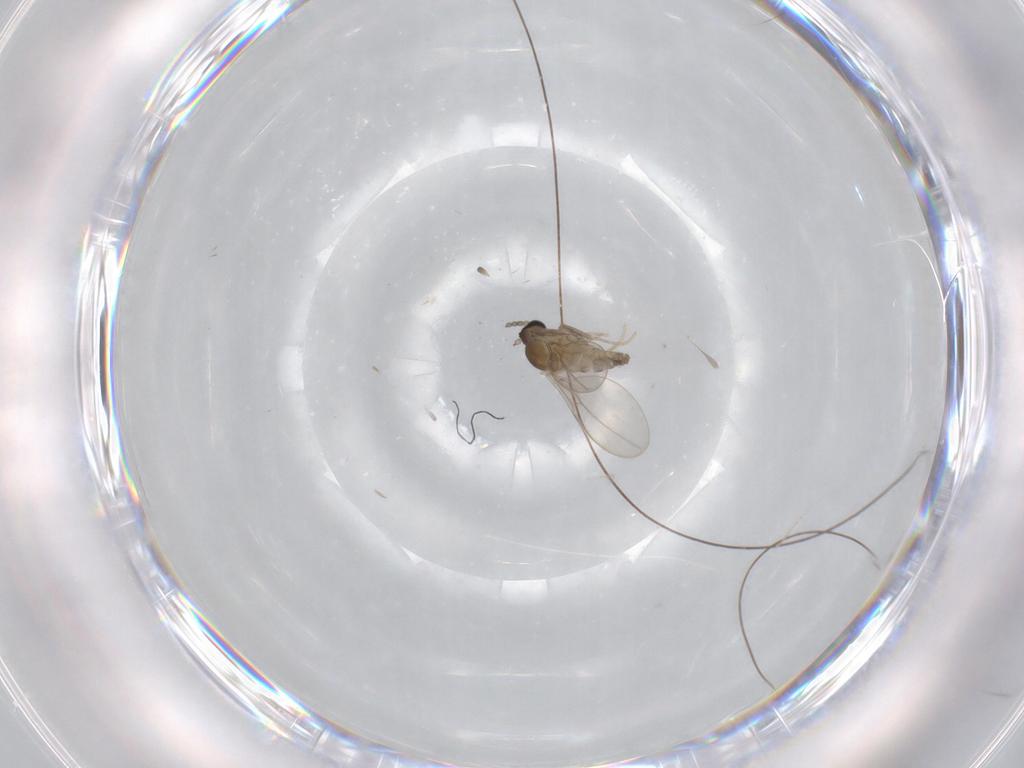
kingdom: Animalia
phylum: Arthropoda
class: Insecta
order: Diptera
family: Cecidomyiidae
